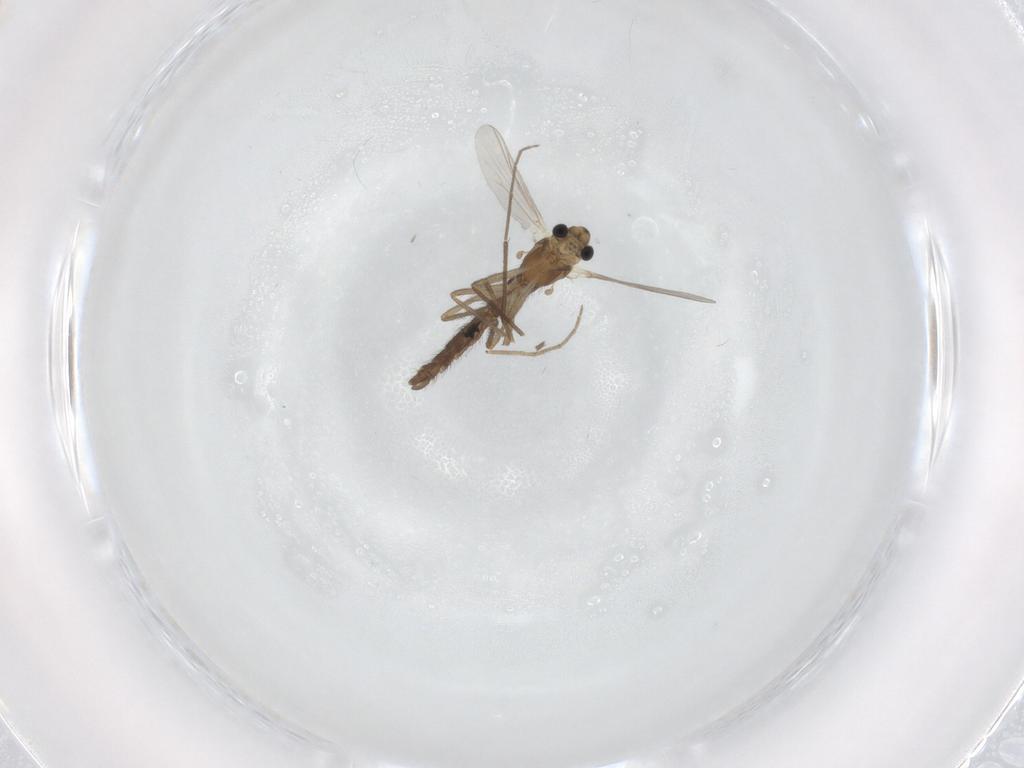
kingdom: Animalia
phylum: Arthropoda
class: Insecta
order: Diptera
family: Chironomidae
